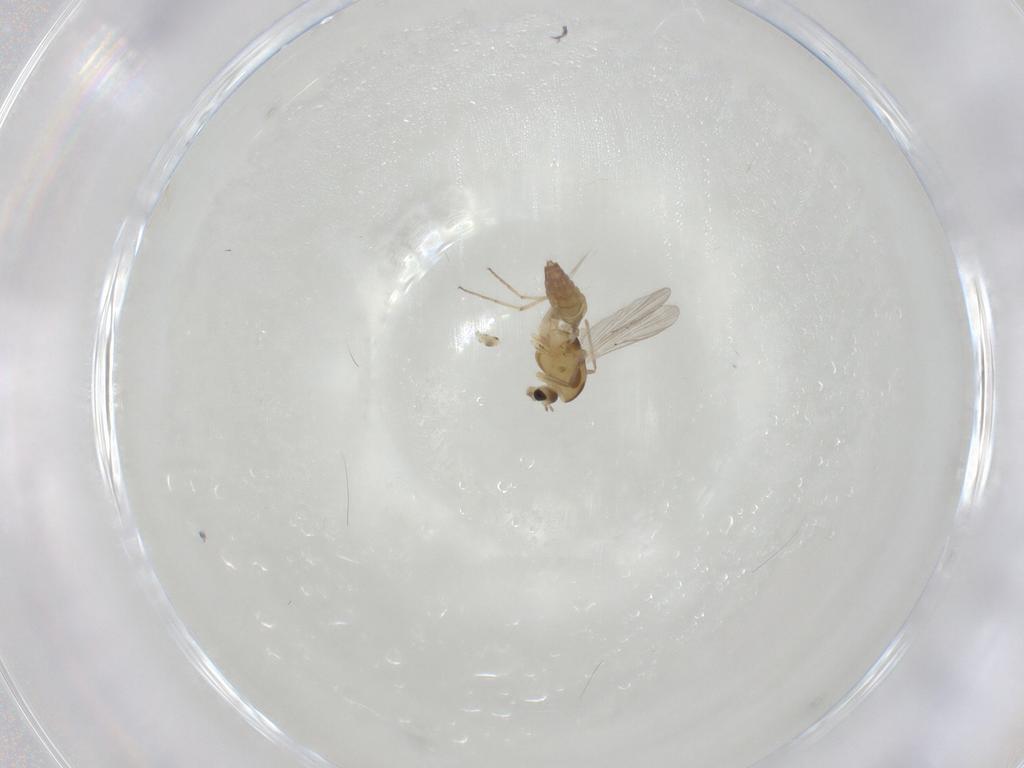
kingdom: Animalia
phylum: Arthropoda
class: Insecta
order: Diptera
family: Chironomidae
